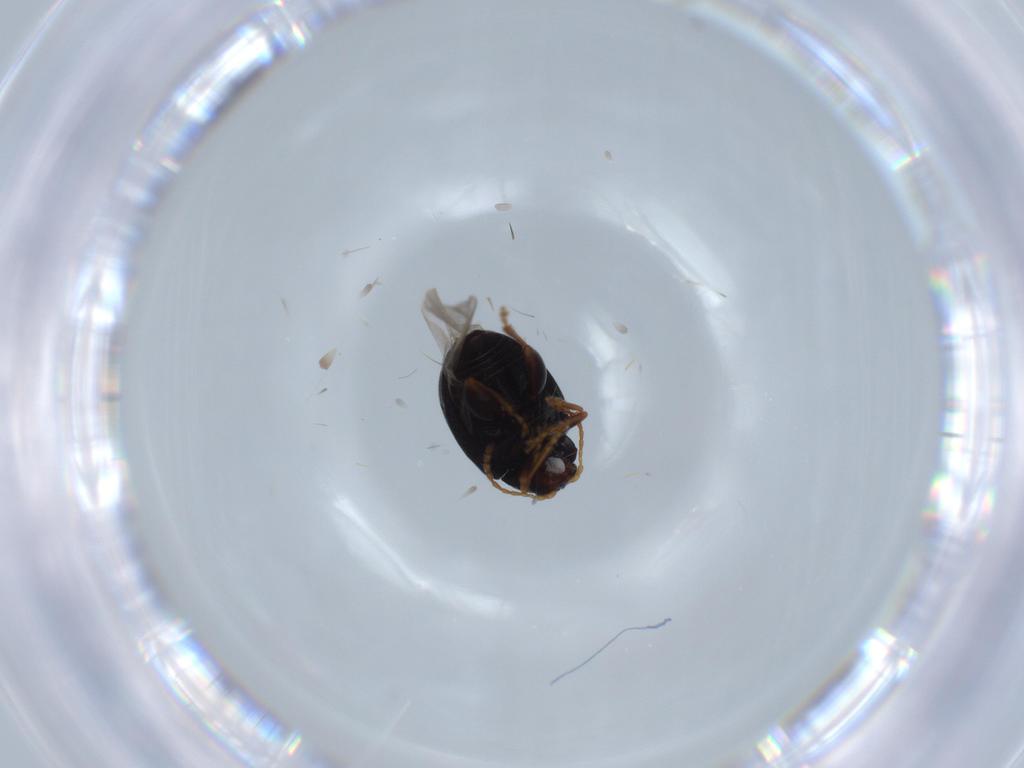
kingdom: Animalia
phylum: Arthropoda
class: Insecta
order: Coleoptera
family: Chrysomelidae
